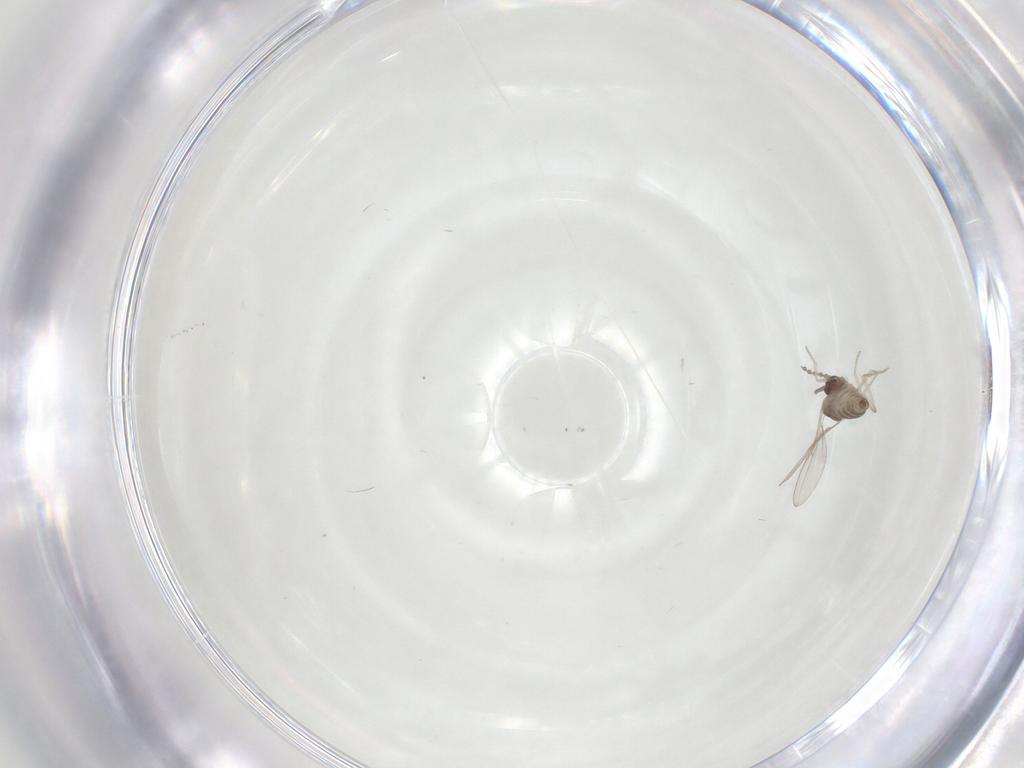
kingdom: Animalia
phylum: Arthropoda
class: Insecta
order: Diptera
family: Cecidomyiidae
